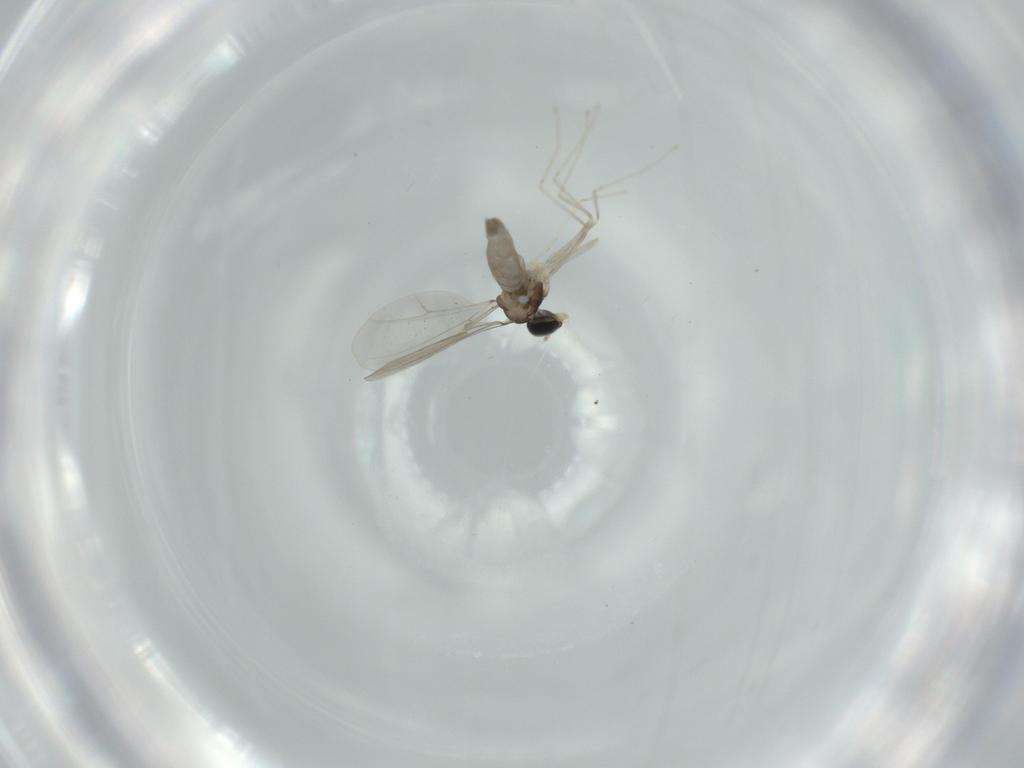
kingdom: Animalia
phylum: Arthropoda
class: Insecta
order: Diptera
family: Cecidomyiidae
